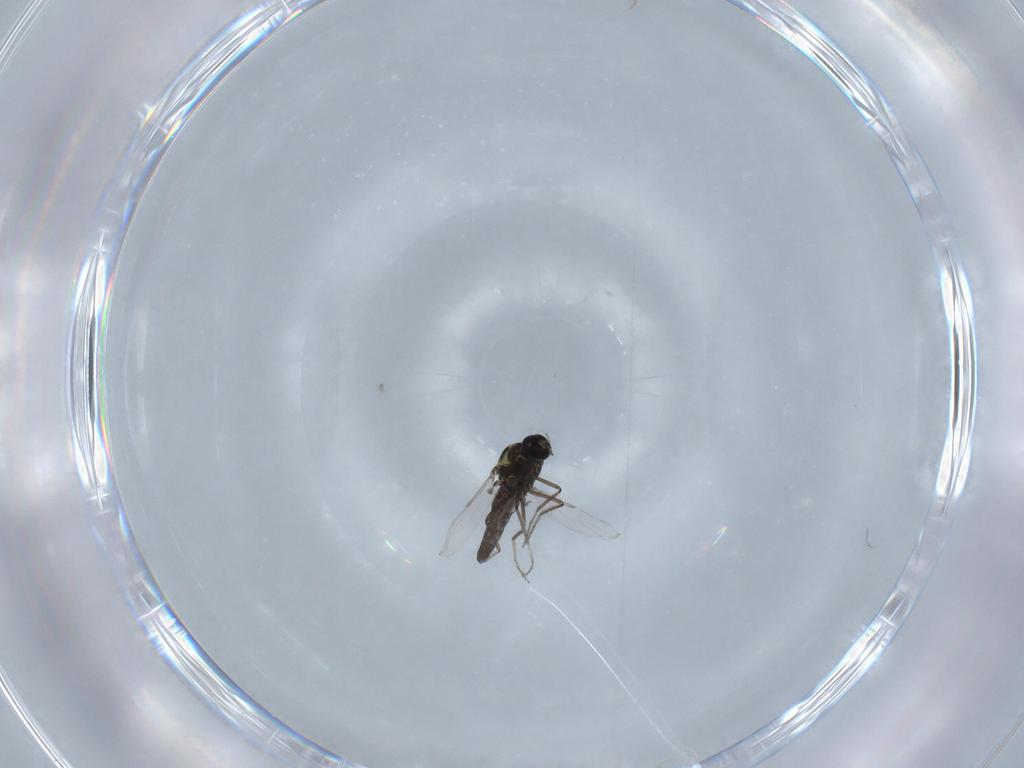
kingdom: Animalia
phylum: Arthropoda
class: Insecta
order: Diptera
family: Ceratopogonidae
